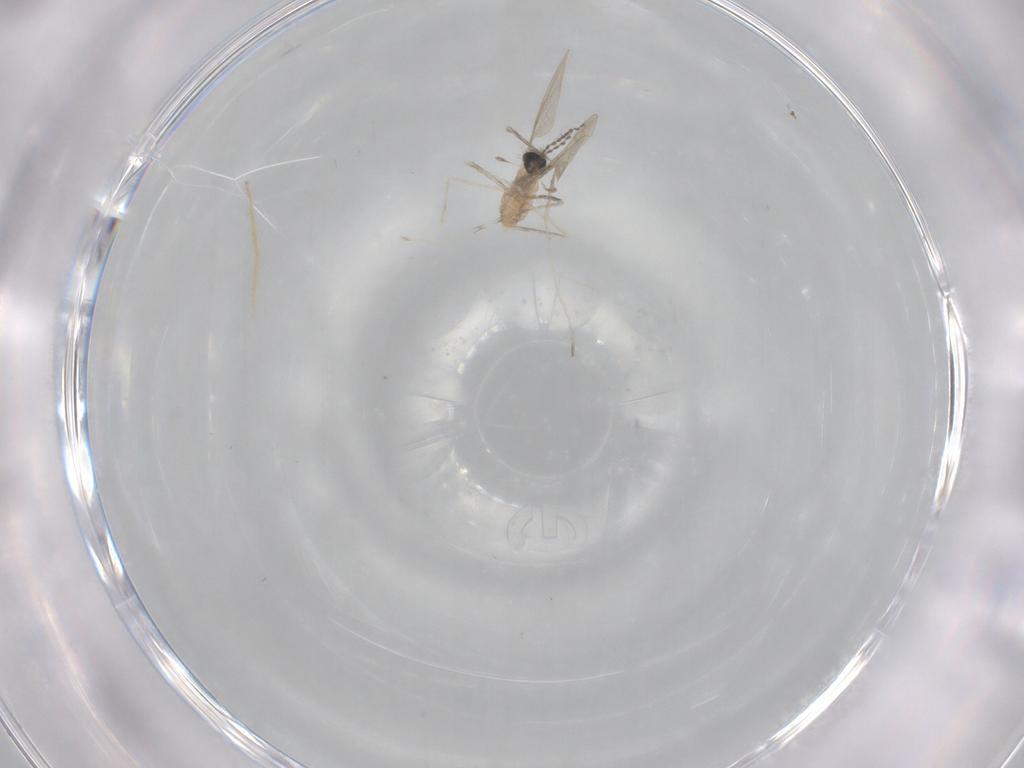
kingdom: Animalia
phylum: Arthropoda
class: Insecta
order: Diptera
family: Cecidomyiidae
